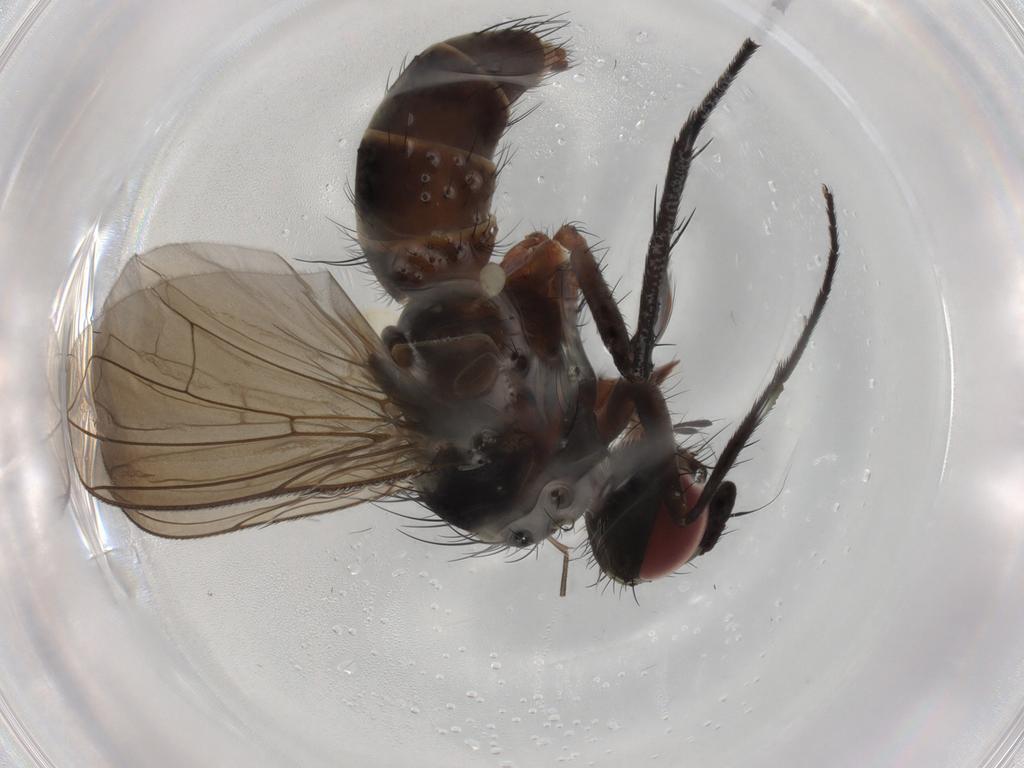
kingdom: Animalia
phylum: Arthropoda
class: Insecta
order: Diptera
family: Muscidae
